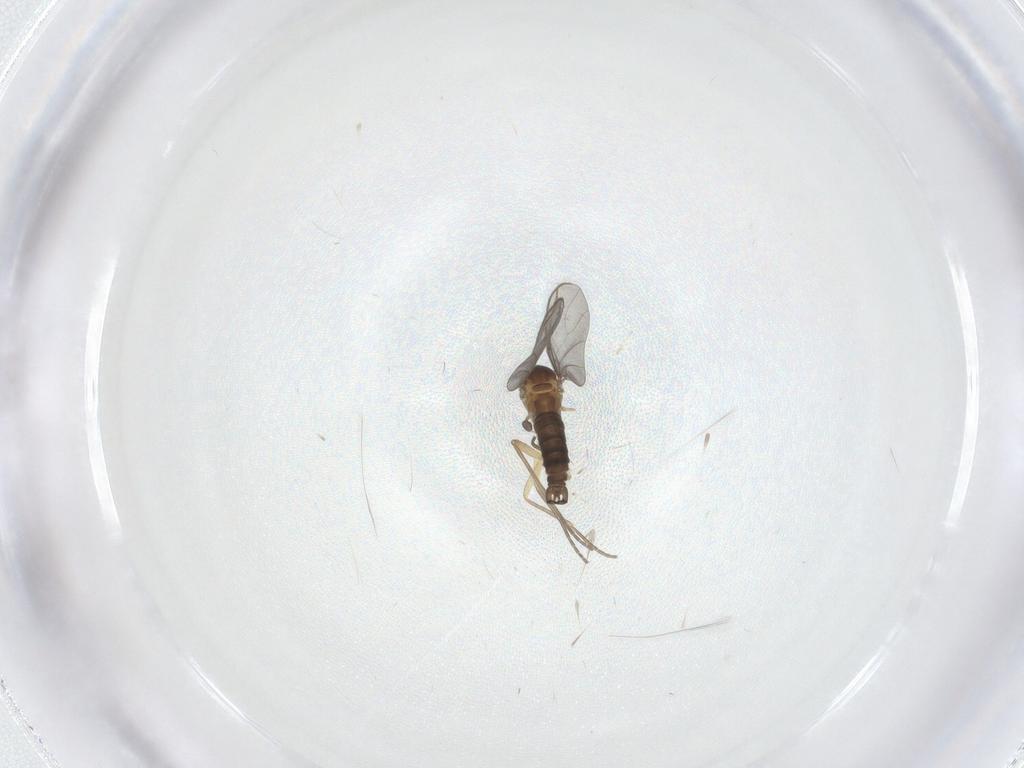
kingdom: Animalia
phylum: Arthropoda
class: Insecta
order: Diptera
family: Sciaridae
